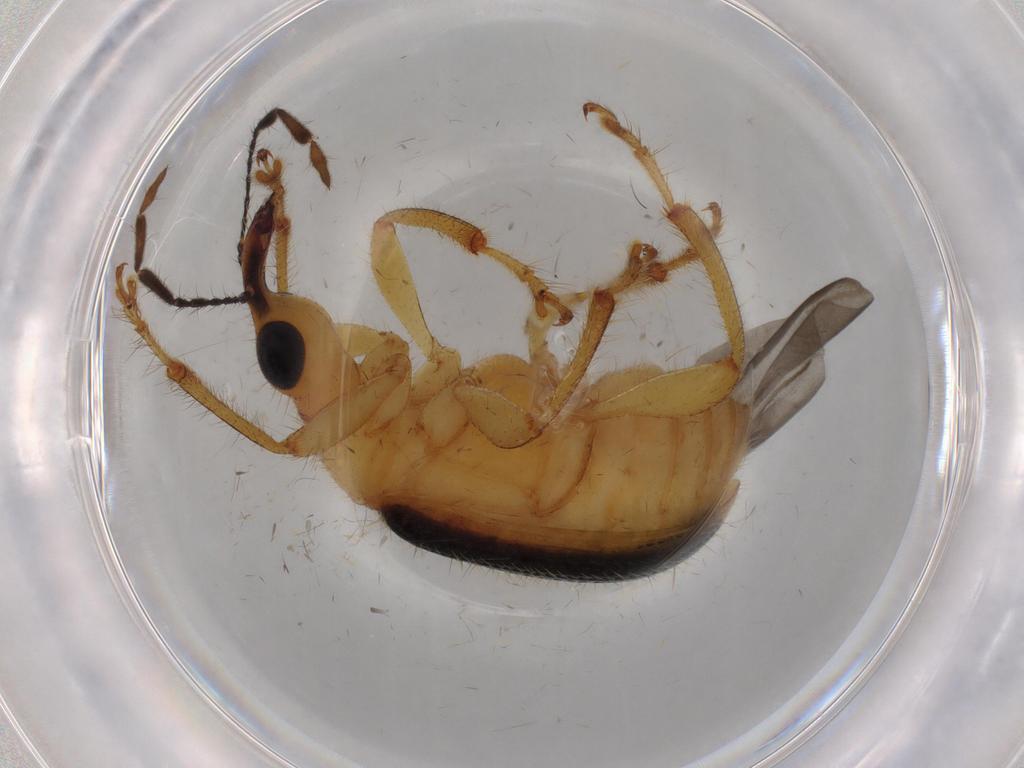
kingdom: Animalia
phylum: Arthropoda
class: Insecta
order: Coleoptera
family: Attelabidae
